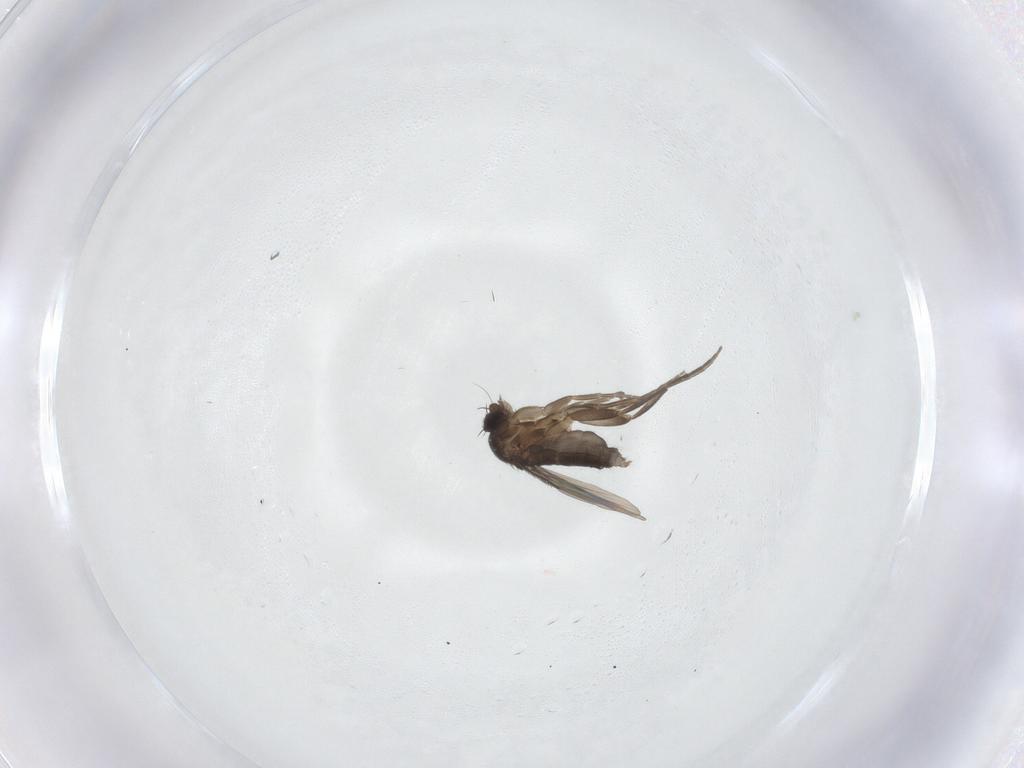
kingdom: Animalia
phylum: Arthropoda
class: Insecta
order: Diptera
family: Phoridae
